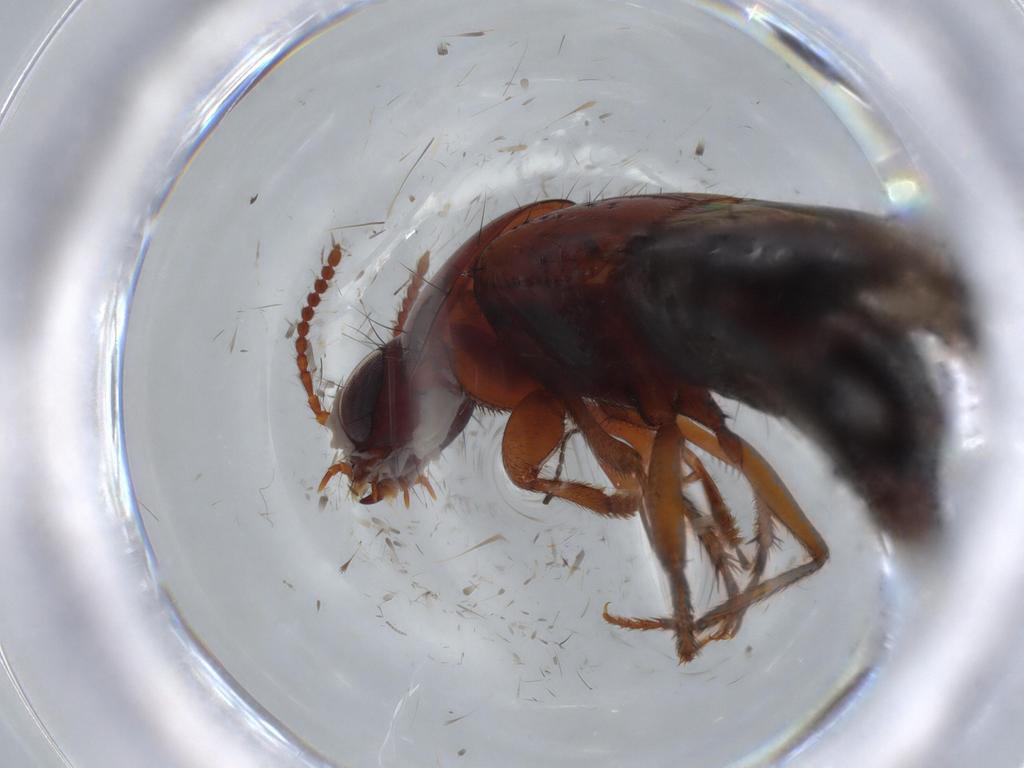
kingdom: Animalia
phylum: Arthropoda
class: Insecta
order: Coleoptera
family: Staphylinidae
